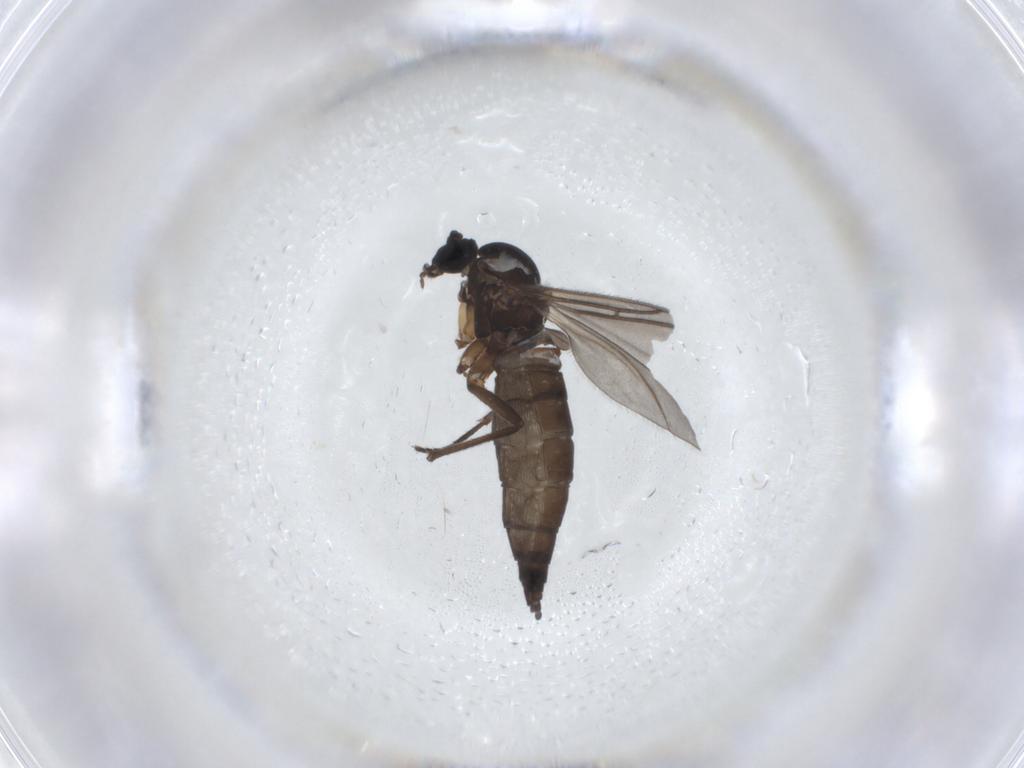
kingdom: Animalia
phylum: Arthropoda
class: Insecta
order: Diptera
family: Sciaridae
